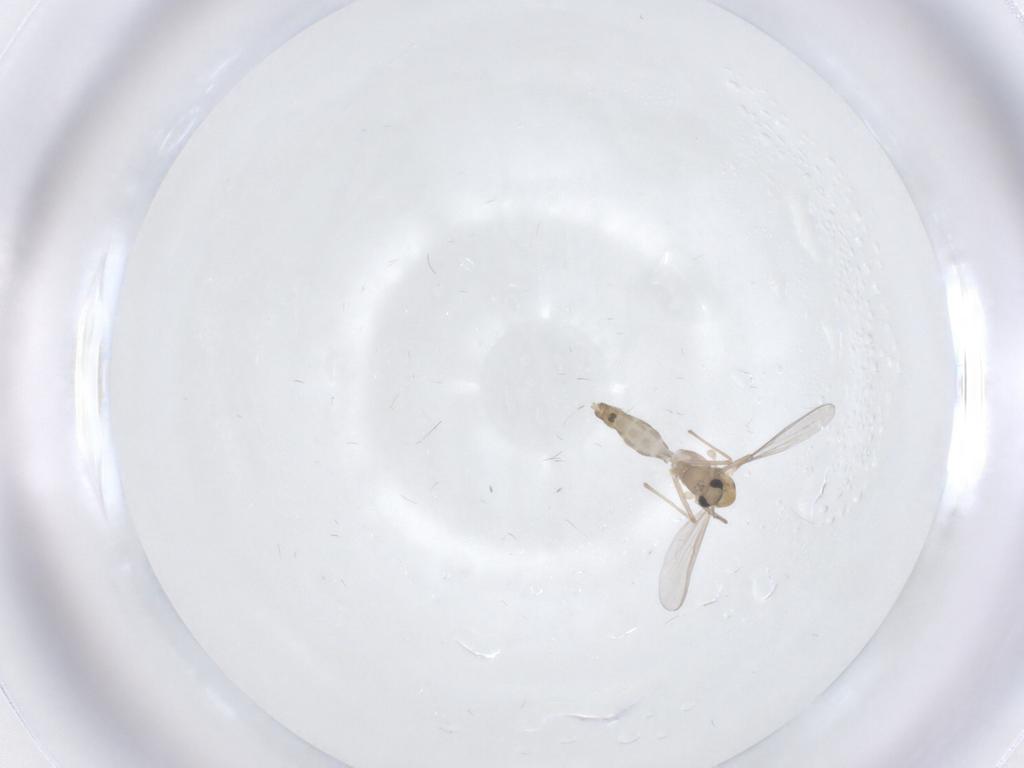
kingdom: Animalia
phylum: Arthropoda
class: Insecta
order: Diptera
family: Chironomidae
